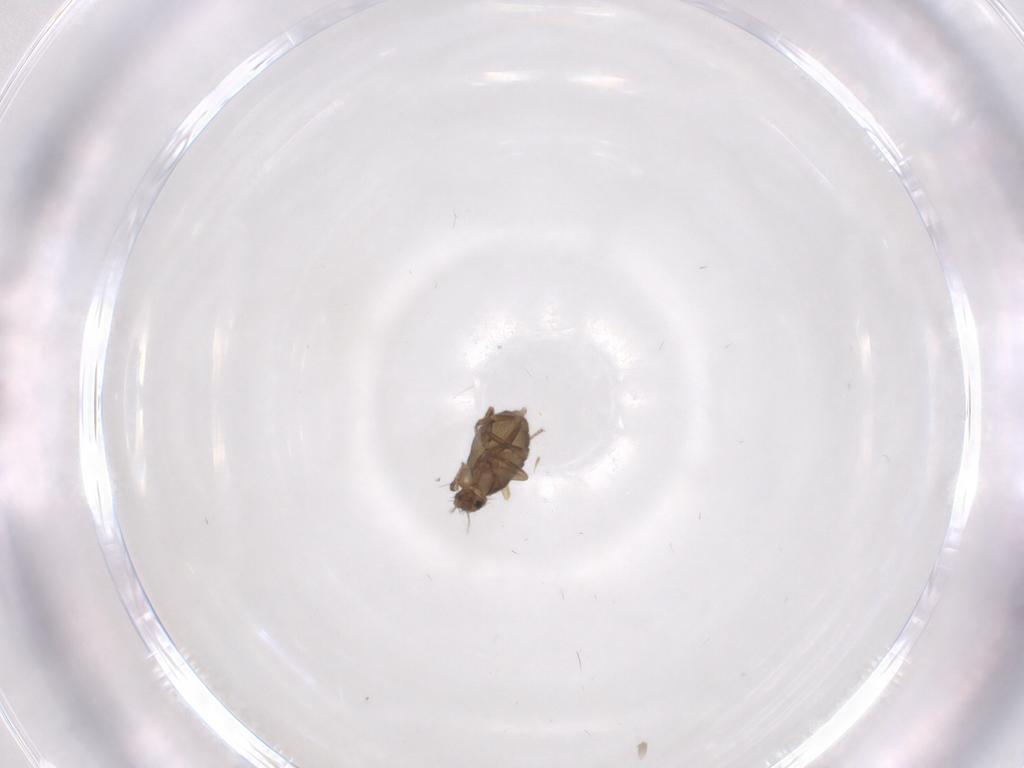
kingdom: Animalia
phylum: Arthropoda
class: Insecta
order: Diptera
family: Phoridae
